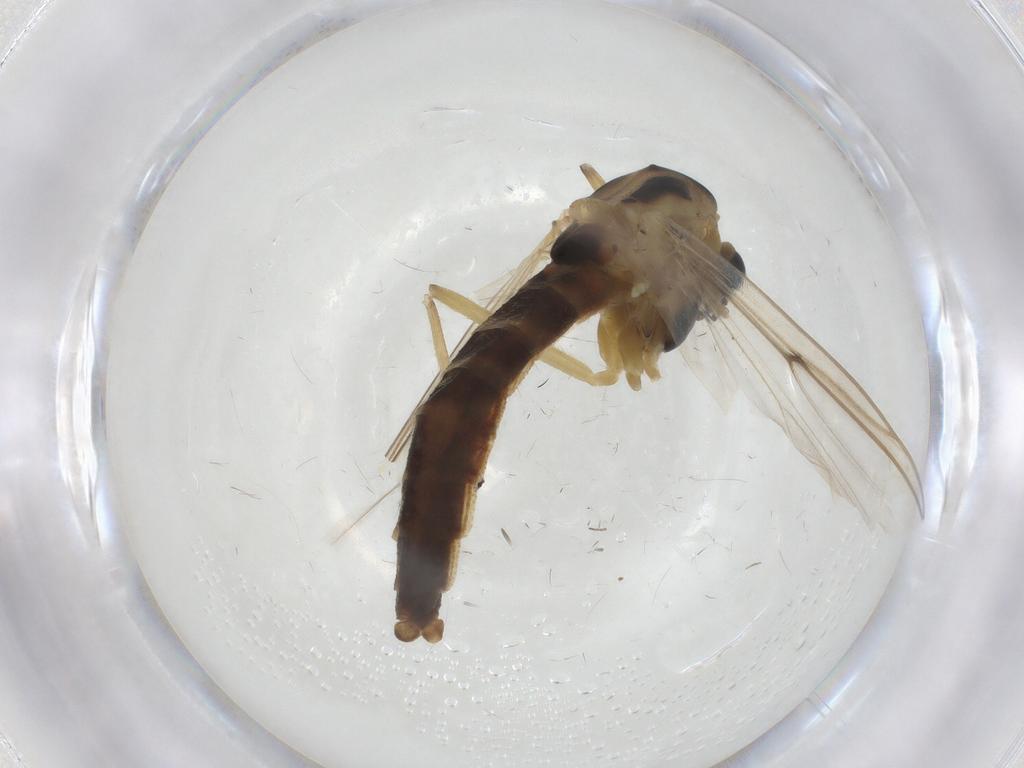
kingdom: Animalia
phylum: Arthropoda
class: Insecta
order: Diptera
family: Chironomidae
